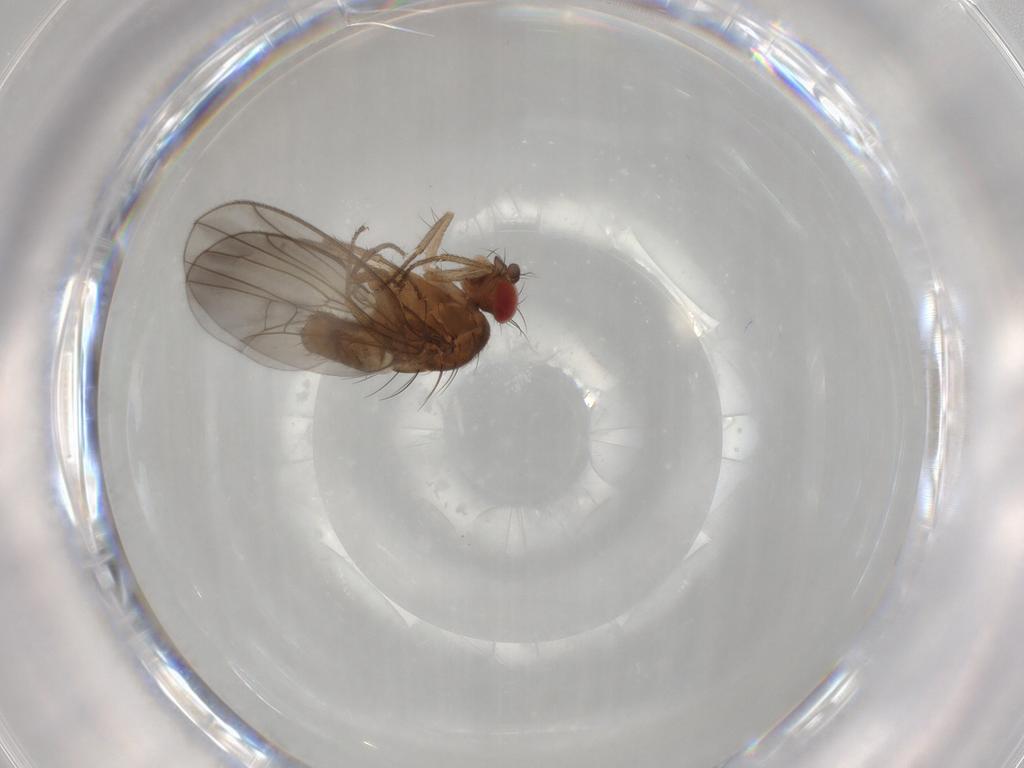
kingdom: Animalia
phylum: Arthropoda
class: Insecta
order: Diptera
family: Drosophilidae
